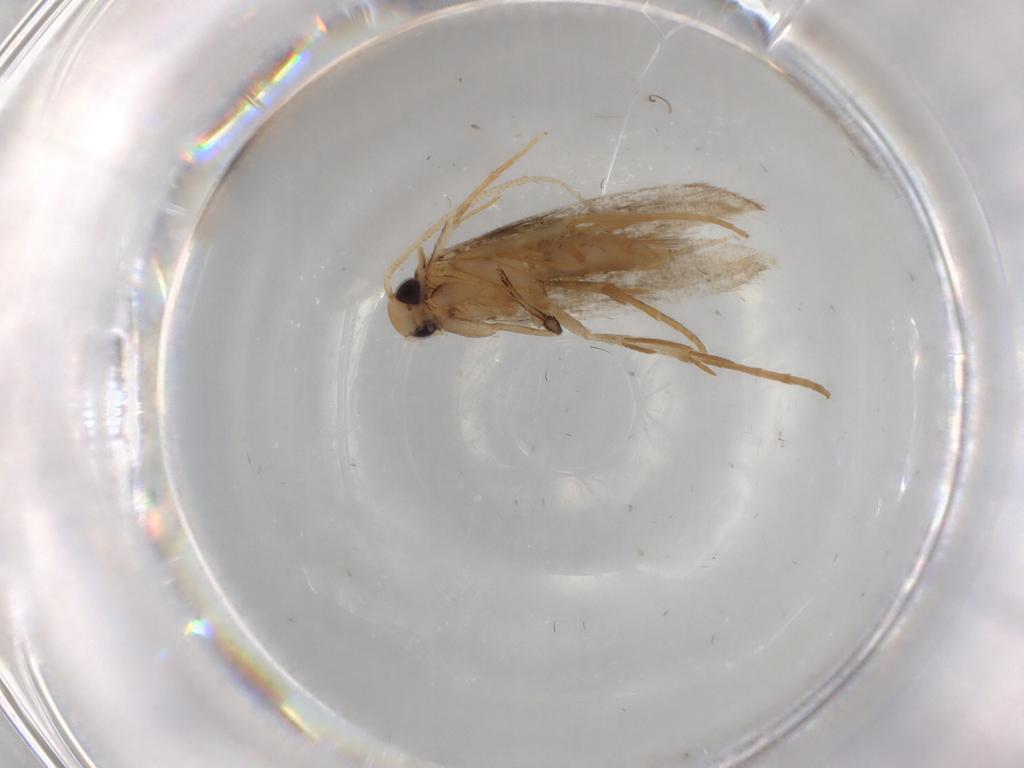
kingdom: Animalia
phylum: Arthropoda
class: Insecta
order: Lepidoptera
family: Cosmopterigidae
